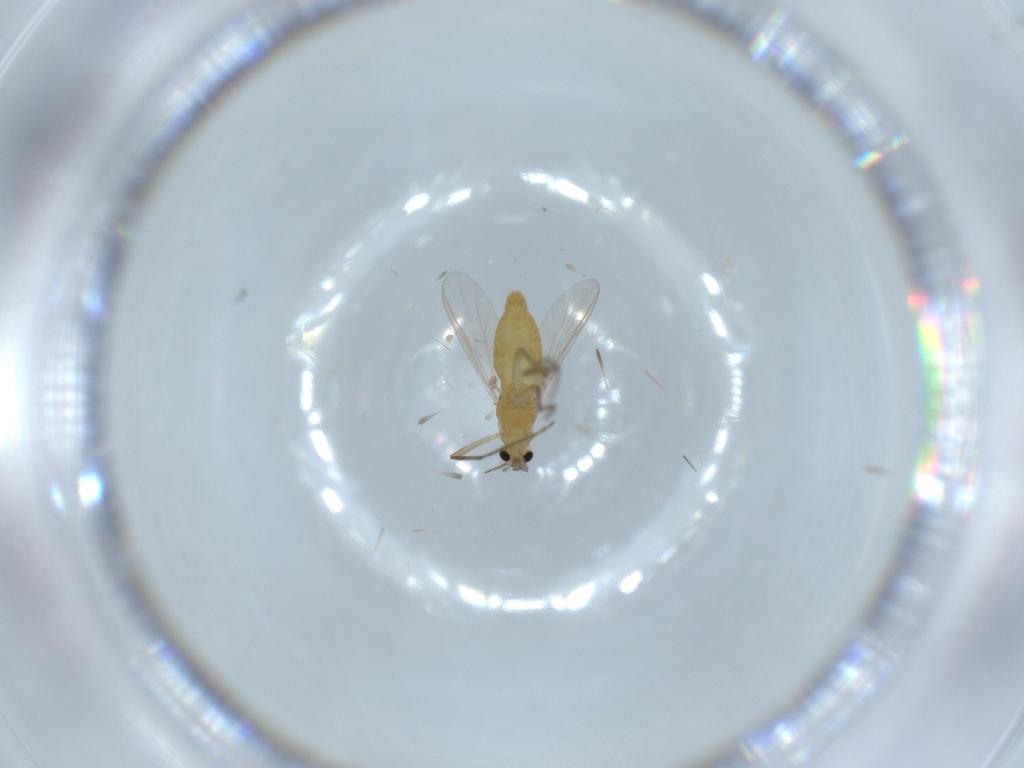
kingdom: Animalia
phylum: Arthropoda
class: Insecta
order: Diptera
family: Chironomidae
